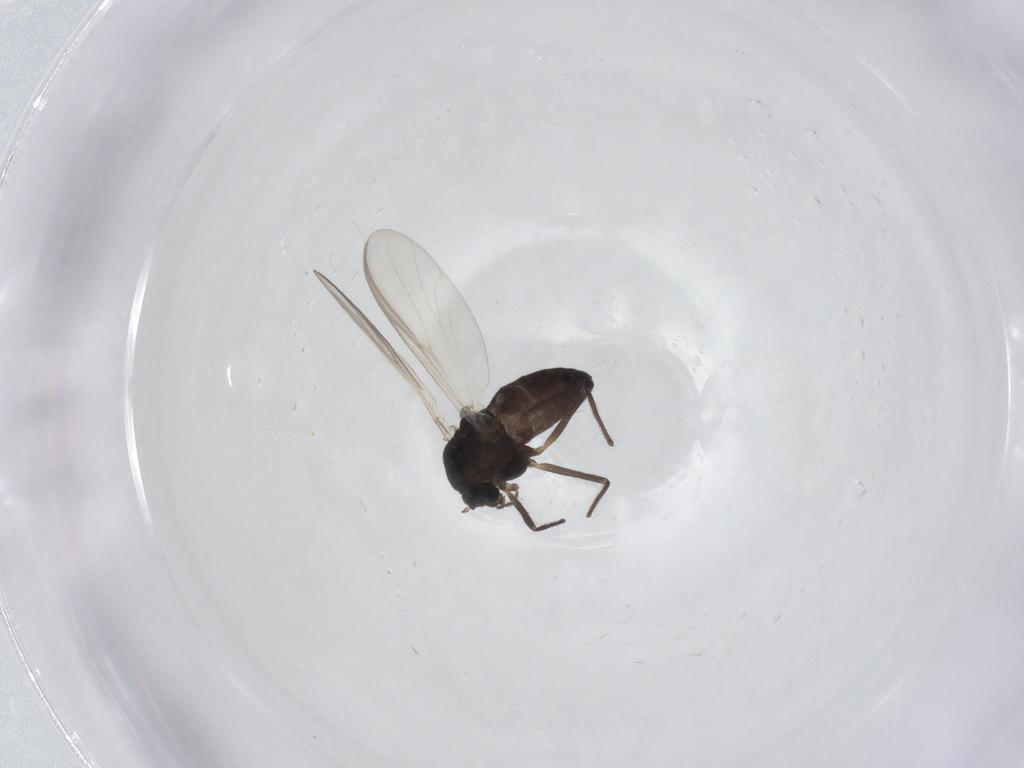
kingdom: Animalia
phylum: Arthropoda
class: Insecta
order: Diptera
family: Chironomidae
